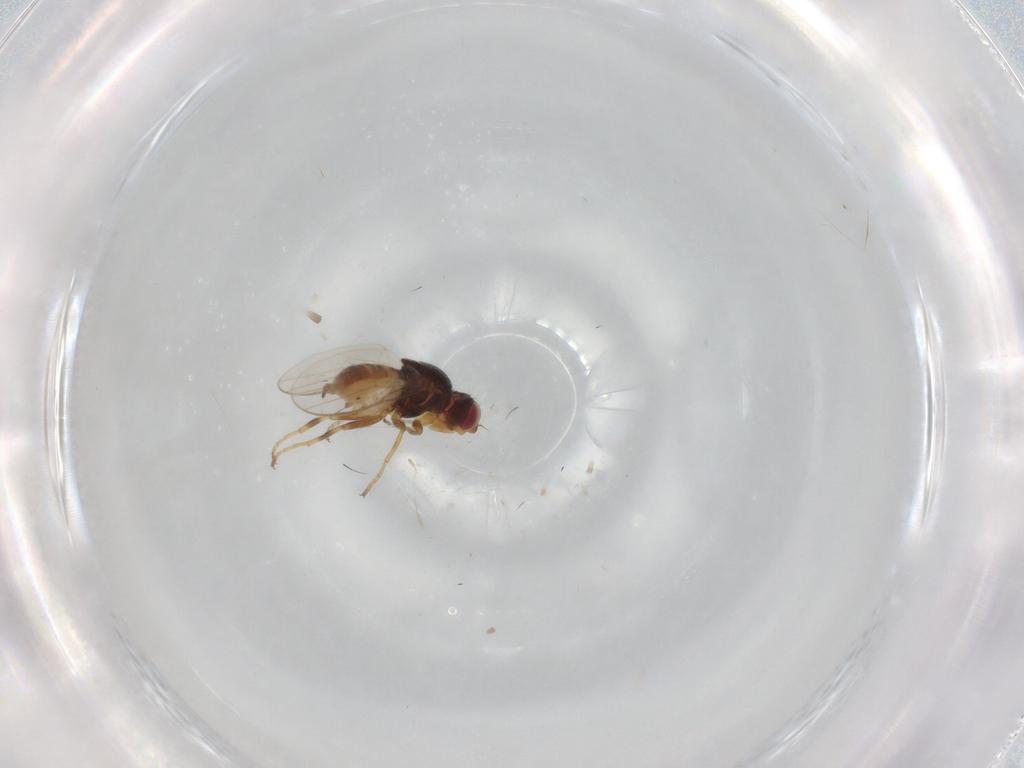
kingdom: Animalia
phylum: Arthropoda
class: Insecta
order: Diptera
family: Chloropidae
